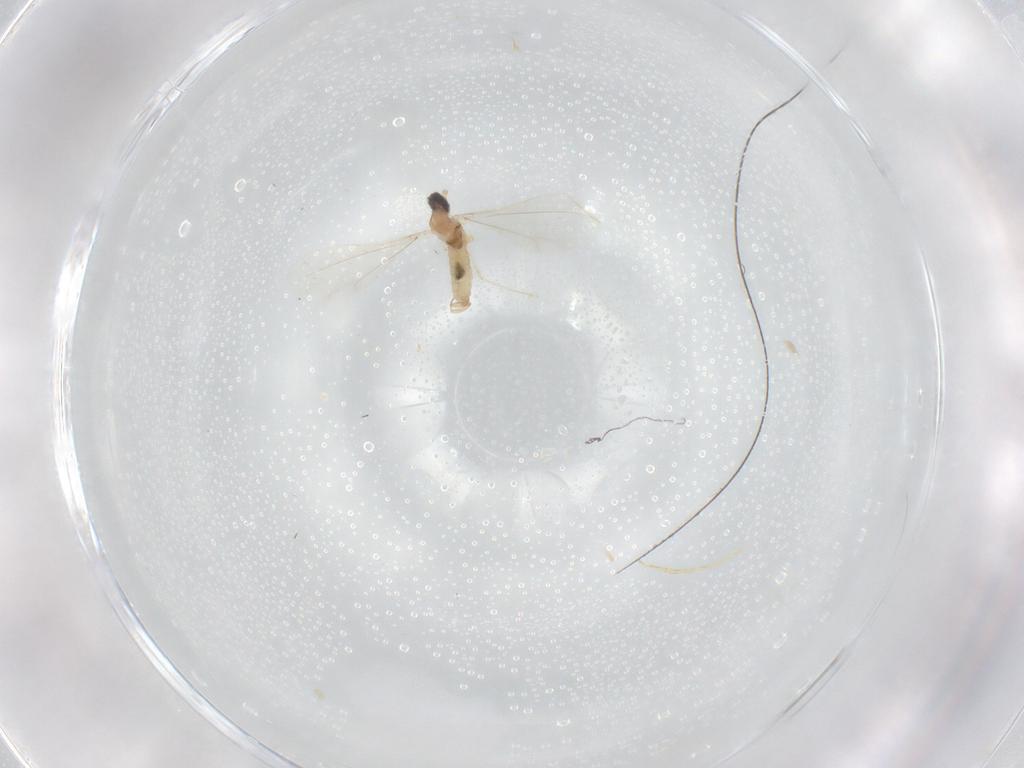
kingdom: Animalia
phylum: Arthropoda
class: Insecta
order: Diptera
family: Cecidomyiidae
